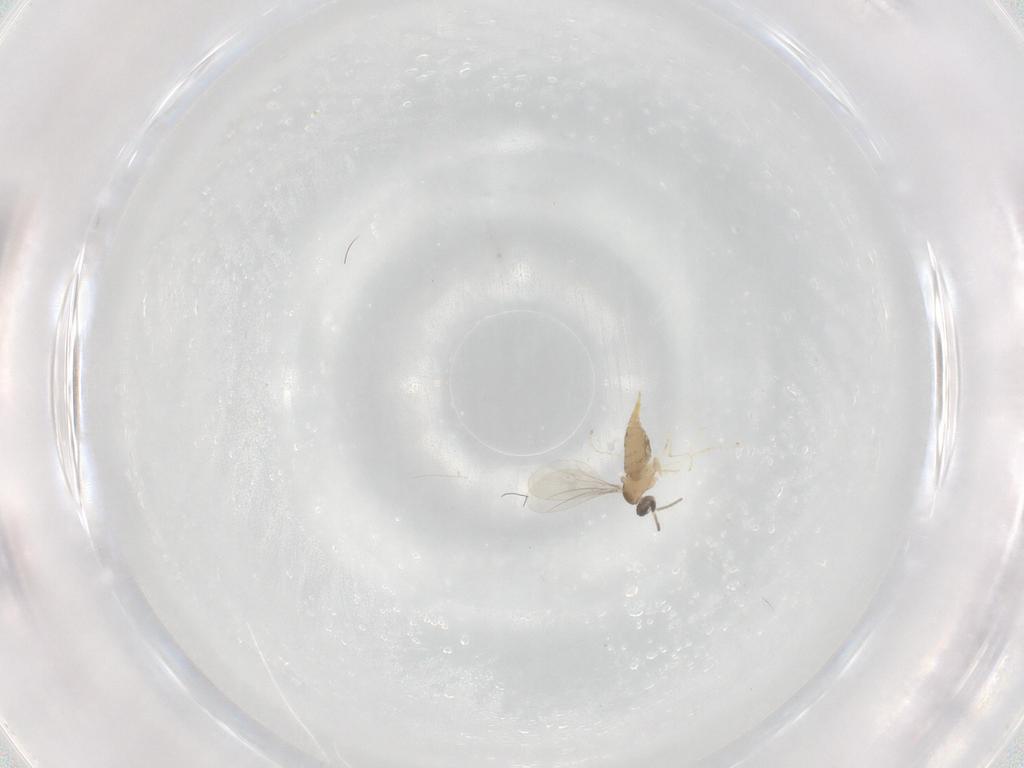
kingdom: Animalia
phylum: Arthropoda
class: Insecta
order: Diptera
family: Cecidomyiidae
